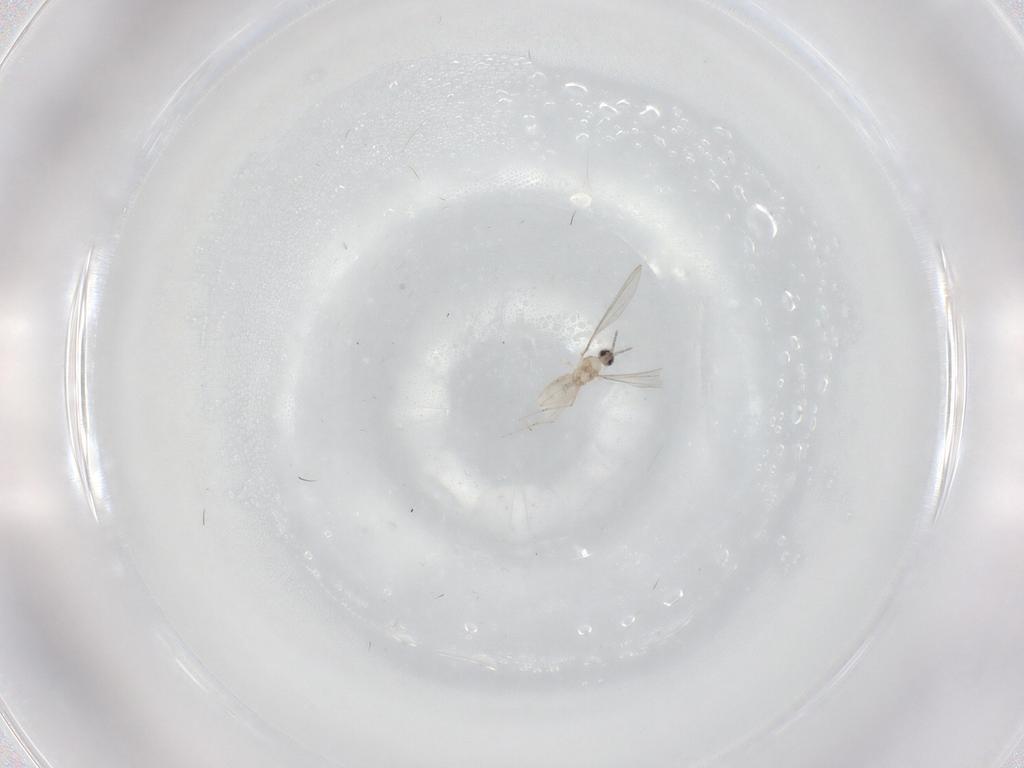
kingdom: Animalia
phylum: Arthropoda
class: Insecta
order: Diptera
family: Cecidomyiidae
